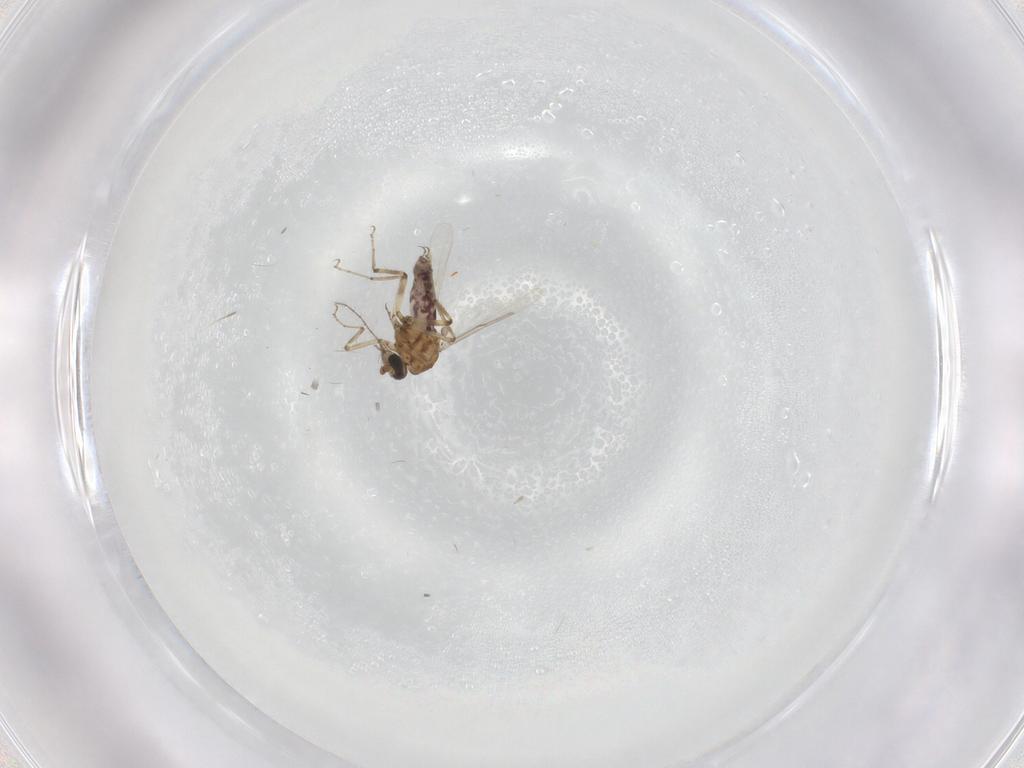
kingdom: Animalia
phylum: Arthropoda
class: Insecta
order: Diptera
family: Ceratopogonidae
